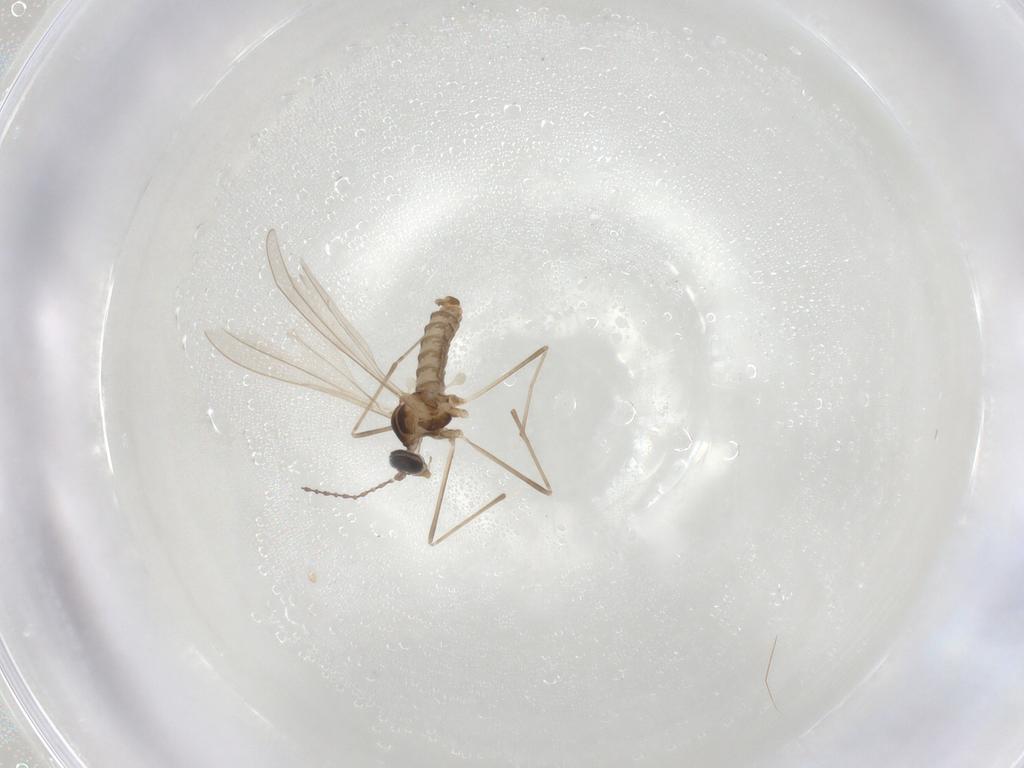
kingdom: Animalia
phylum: Arthropoda
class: Insecta
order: Diptera
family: Cecidomyiidae
